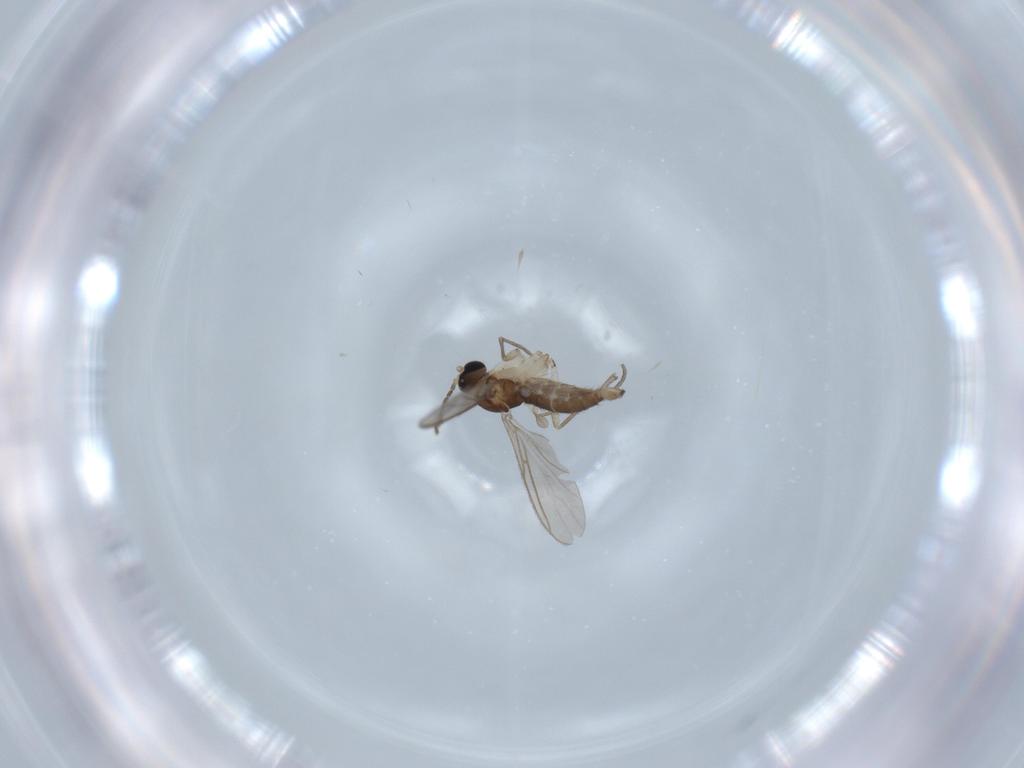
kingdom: Animalia
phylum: Arthropoda
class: Insecta
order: Diptera
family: Sciaridae
